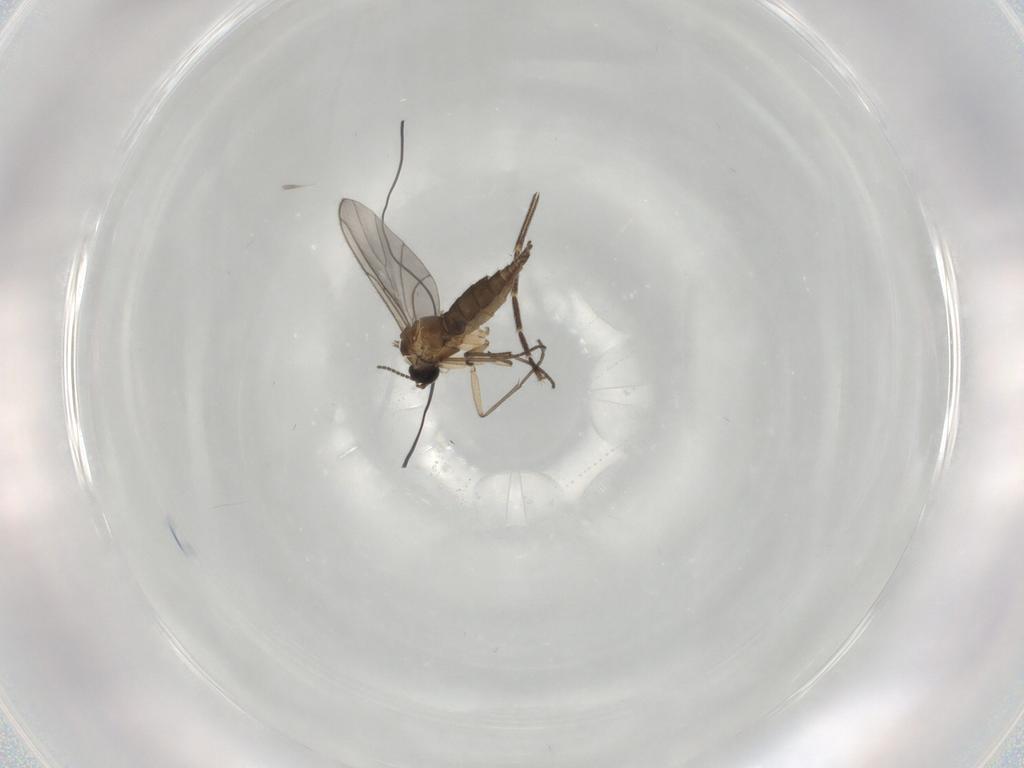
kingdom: Animalia
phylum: Arthropoda
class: Insecta
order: Diptera
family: Sciaridae
